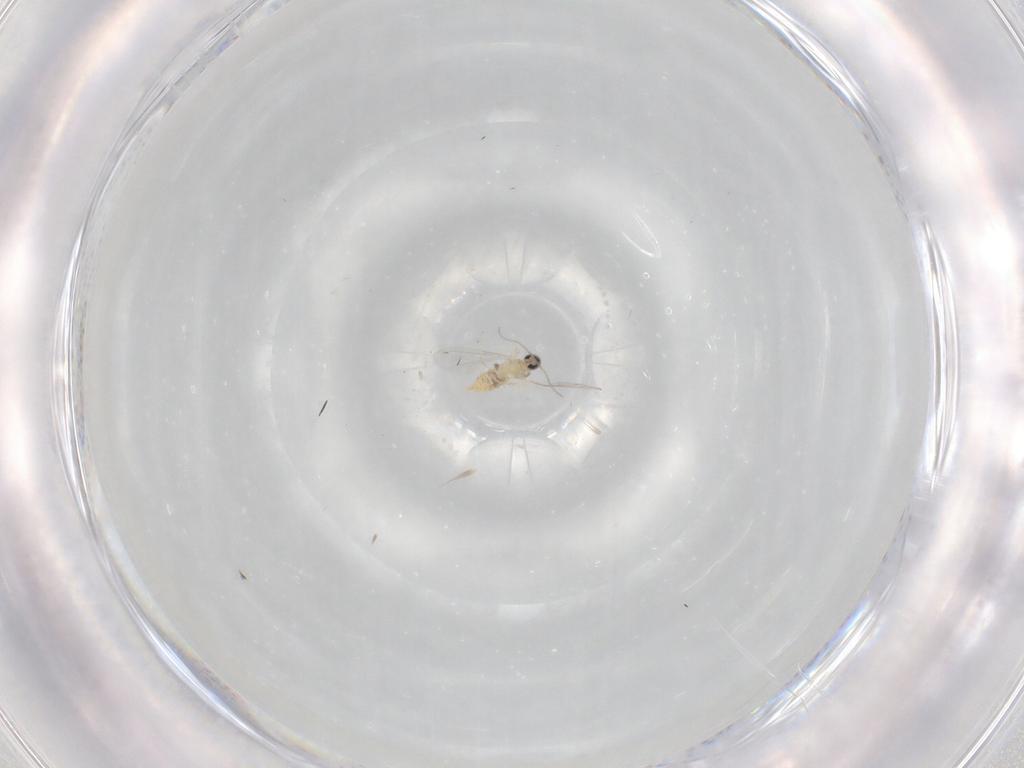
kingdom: Animalia
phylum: Arthropoda
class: Insecta
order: Diptera
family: Cecidomyiidae
